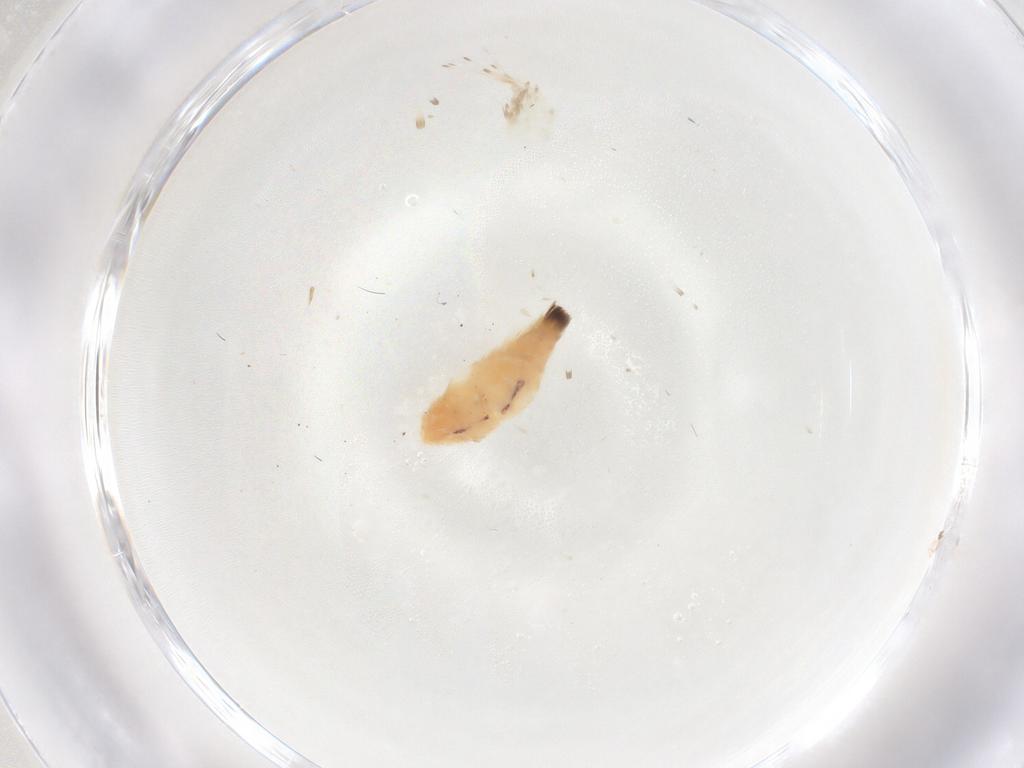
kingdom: Animalia
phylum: Arthropoda
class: Insecta
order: Lepidoptera
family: Gelechiidae
